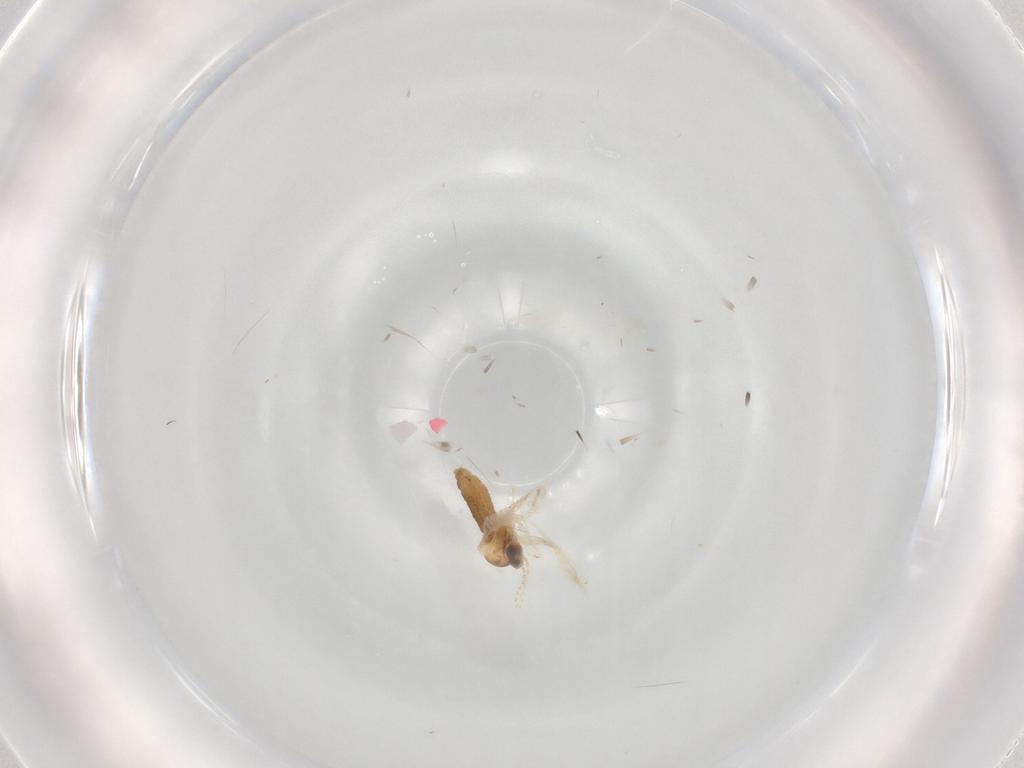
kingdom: Animalia
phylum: Arthropoda
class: Insecta
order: Diptera
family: Cecidomyiidae
